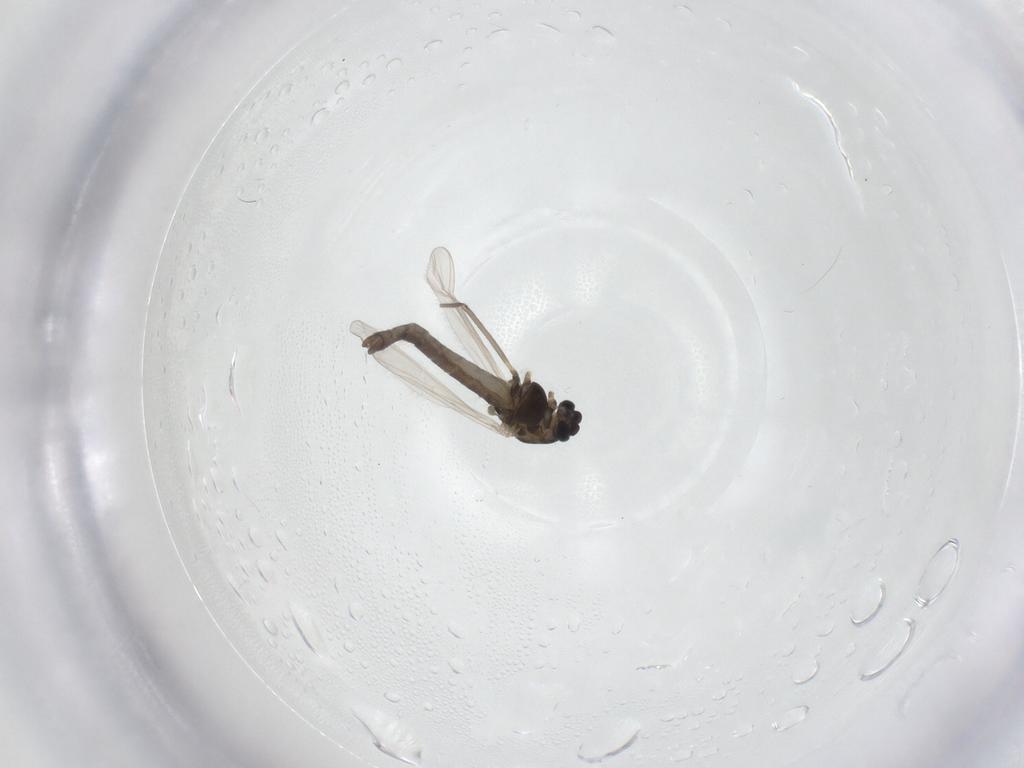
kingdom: Animalia
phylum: Arthropoda
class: Insecta
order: Diptera
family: Chironomidae
